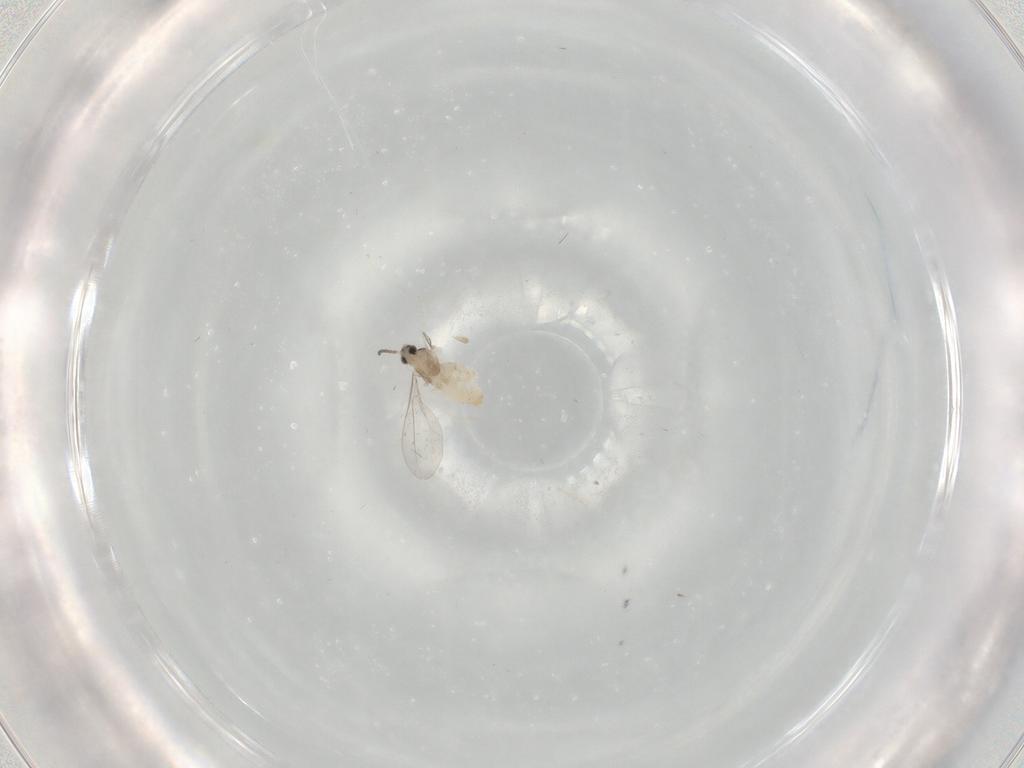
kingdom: Animalia
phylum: Arthropoda
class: Insecta
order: Diptera
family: Cecidomyiidae
